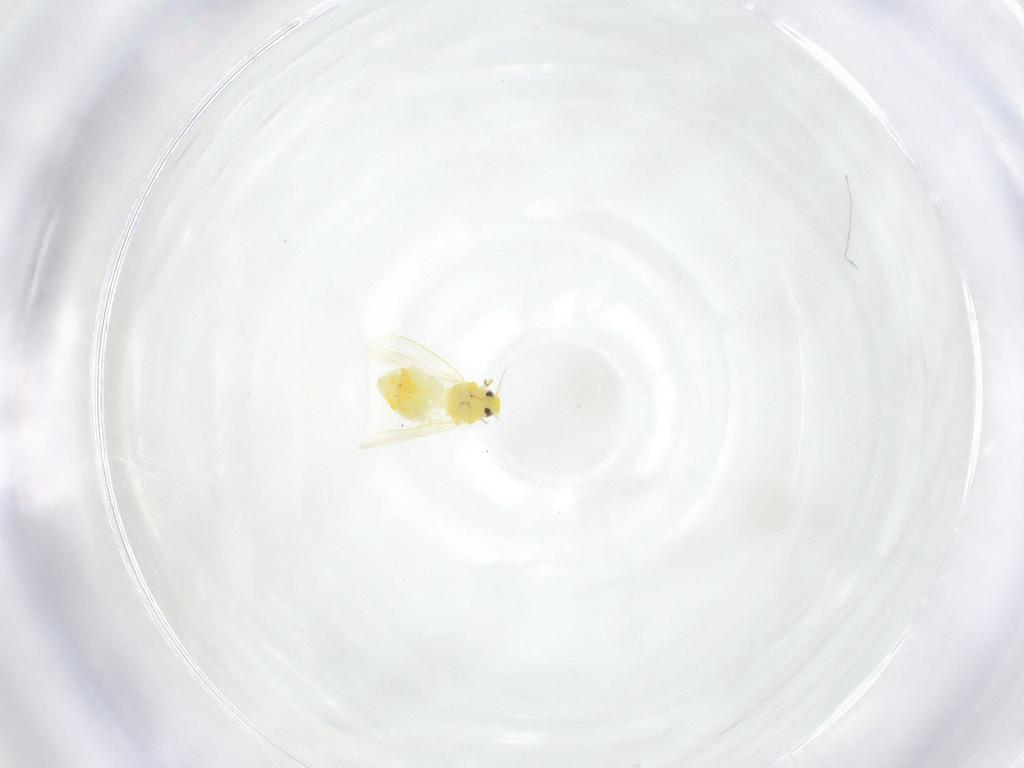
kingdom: Animalia
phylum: Arthropoda
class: Insecta
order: Hemiptera
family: Aleyrodidae
